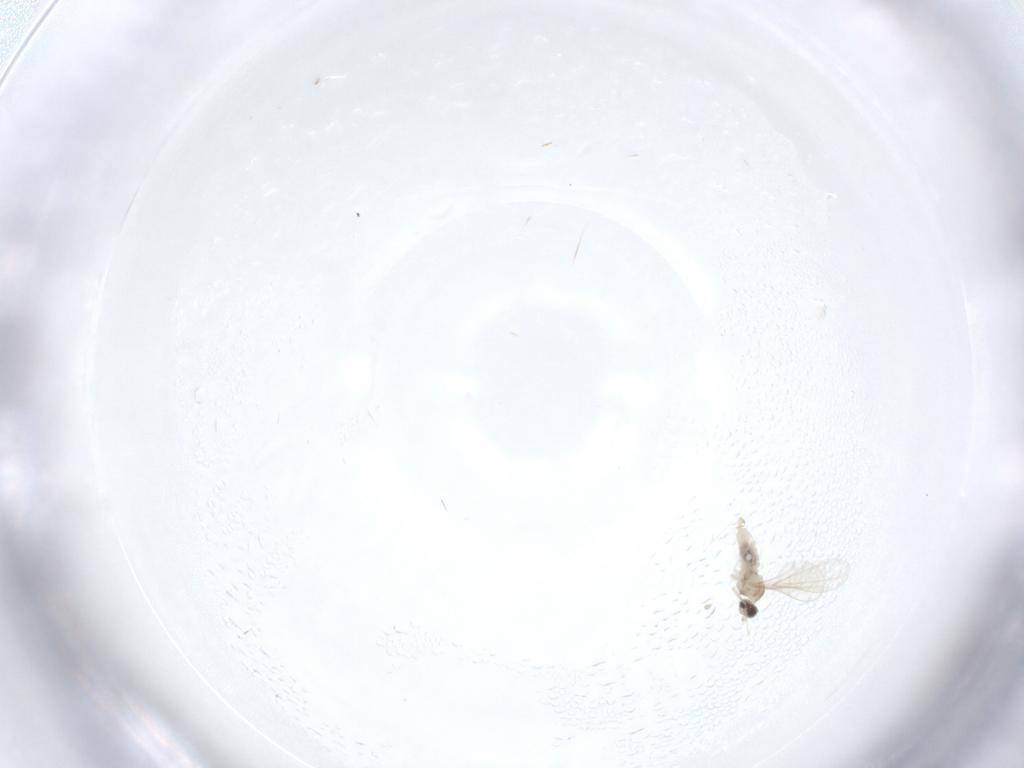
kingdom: Animalia
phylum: Arthropoda
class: Insecta
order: Diptera
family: Cecidomyiidae
